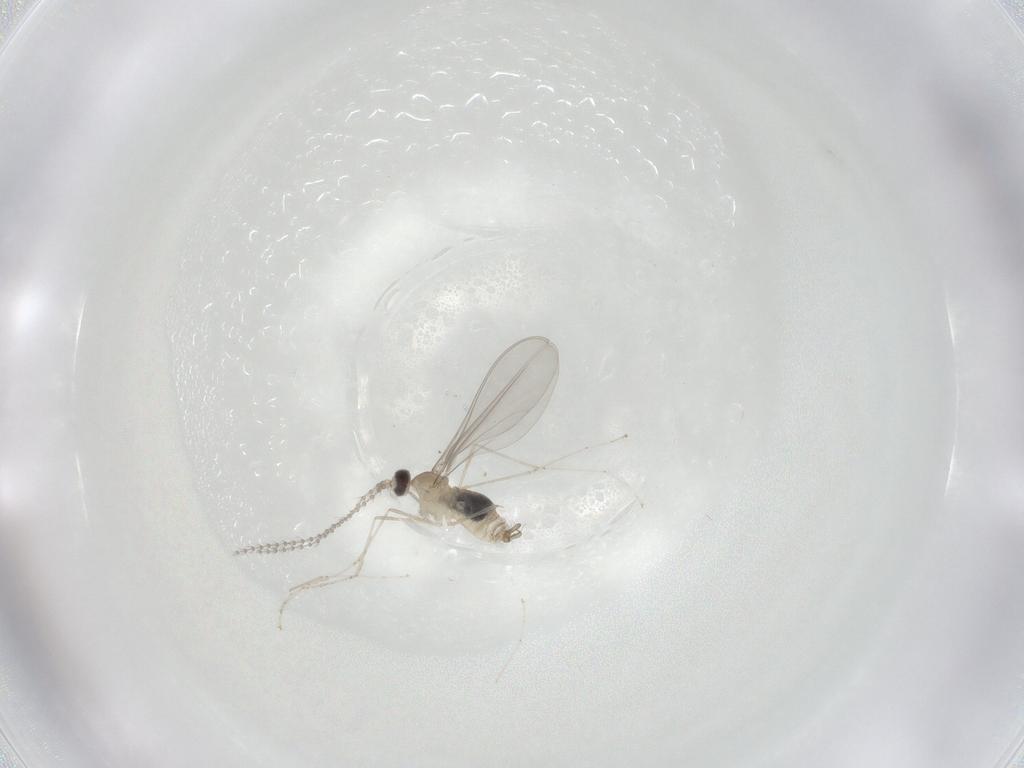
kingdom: Animalia
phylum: Arthropoda
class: Insecta
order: Diptera
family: Cecidomyiidae
